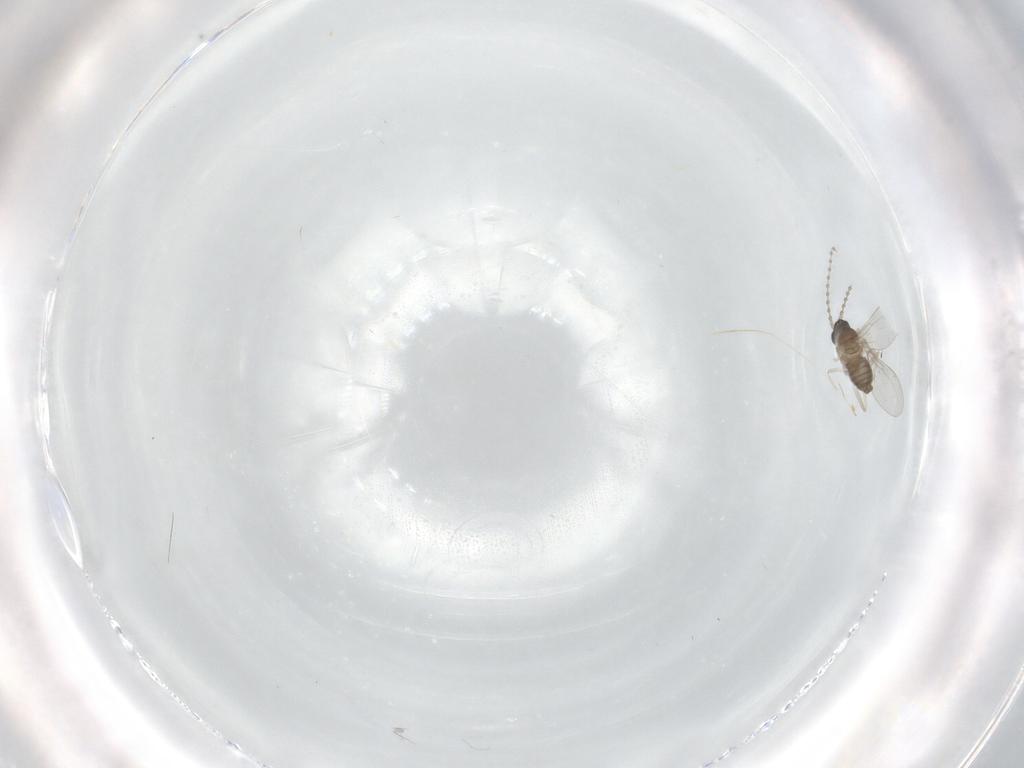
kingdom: Animalia
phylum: Arthropoda
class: Insecta
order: Diptera
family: Cecidomyiidae
